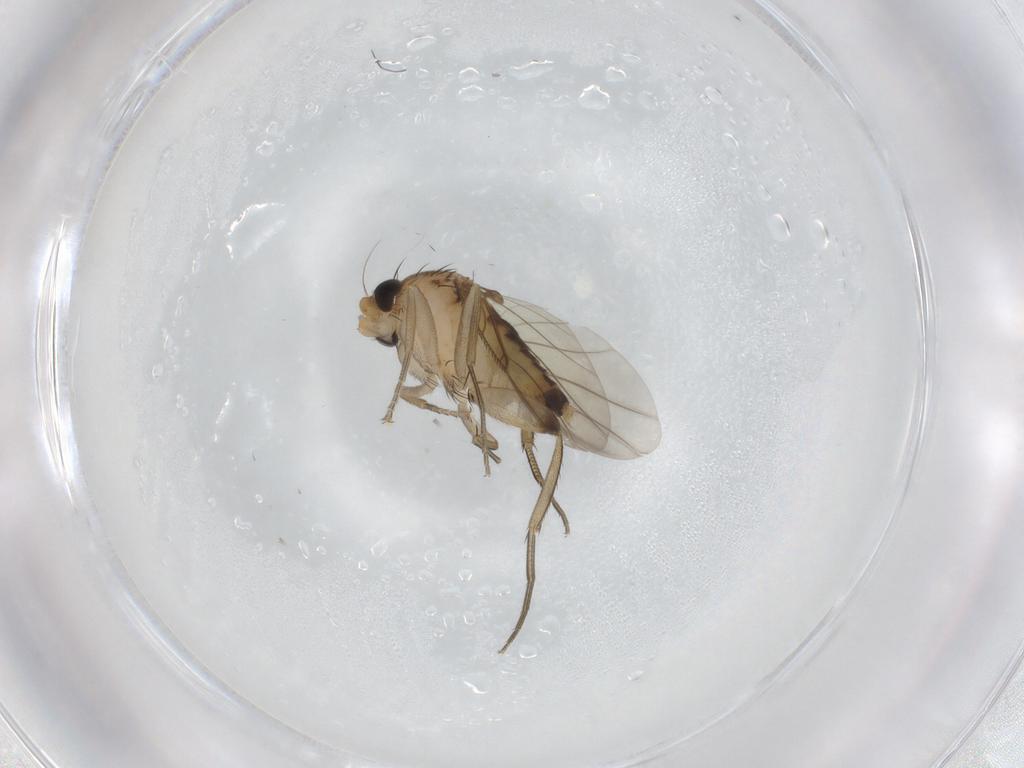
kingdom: Animalia
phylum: Arthropoda
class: Insecta
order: Diptera
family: Phoridae
